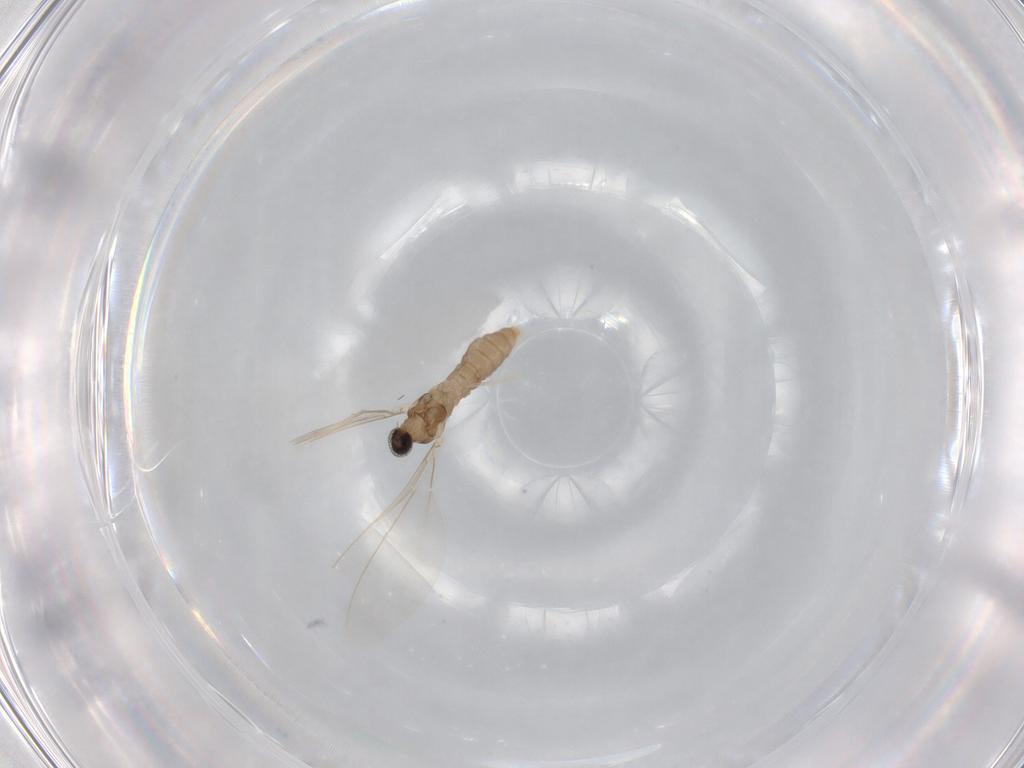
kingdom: Animalia
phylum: Arthropoda
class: Insecta
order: Diptera
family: Cecidomyiidae
